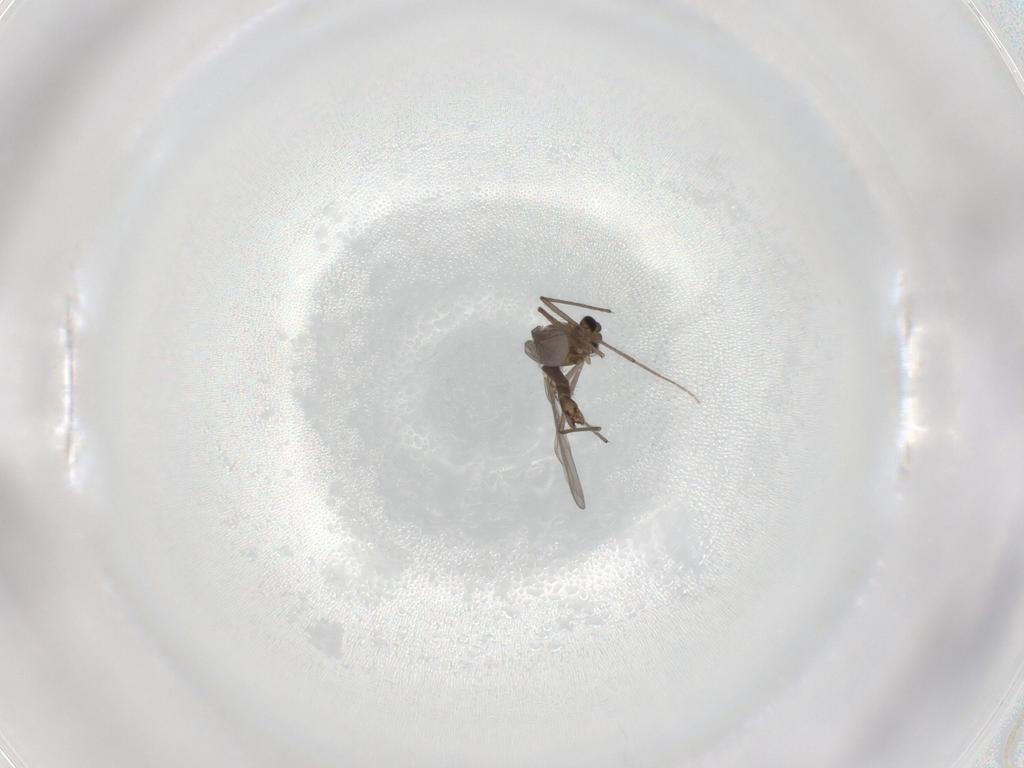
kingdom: Animalia
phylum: Arthropoda
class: Insecta
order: Diptera
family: Chironomidae
